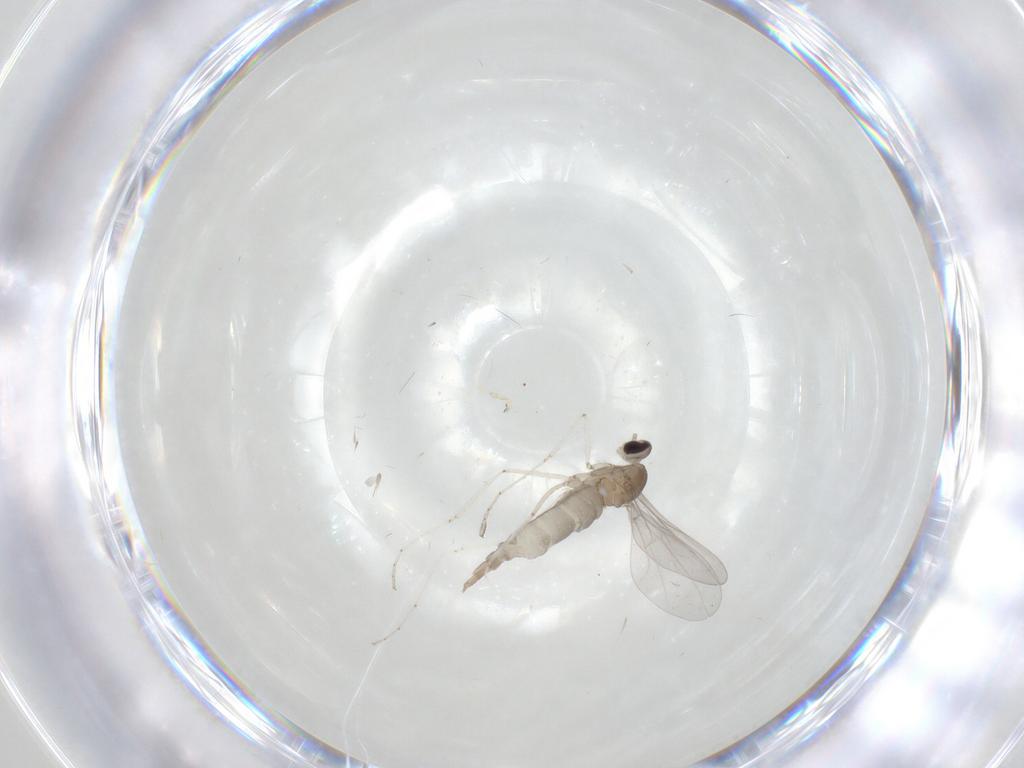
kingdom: Animalia
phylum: Arthropoda
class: Insecta
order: Diptera
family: Cecidomyiidae
